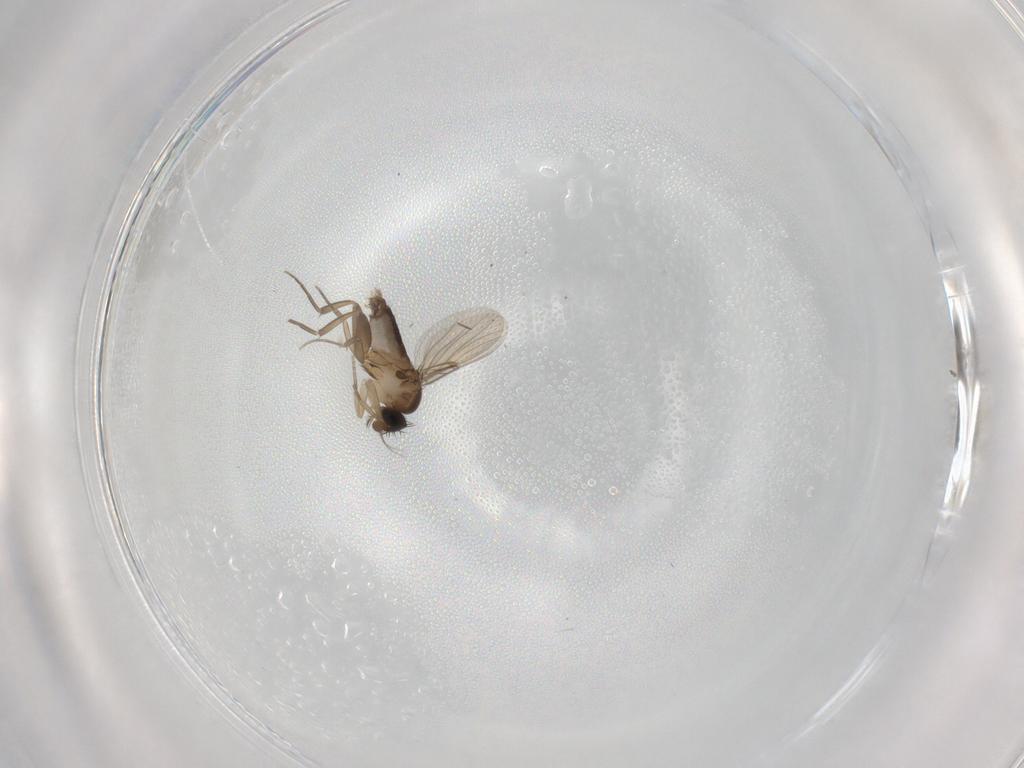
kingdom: Animalia
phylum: Arthropoda
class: Insecta
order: Diptera
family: Phoridae
